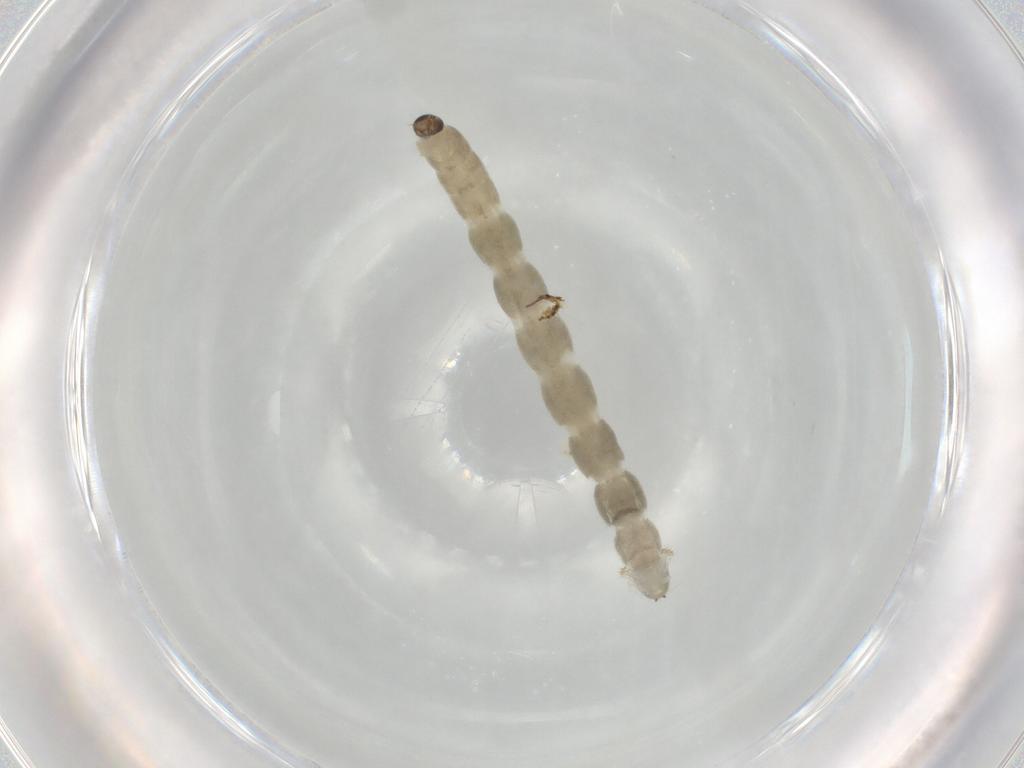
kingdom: Animalia
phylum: Arthropoda
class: Insecta
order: Diptera
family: Chironomidae
